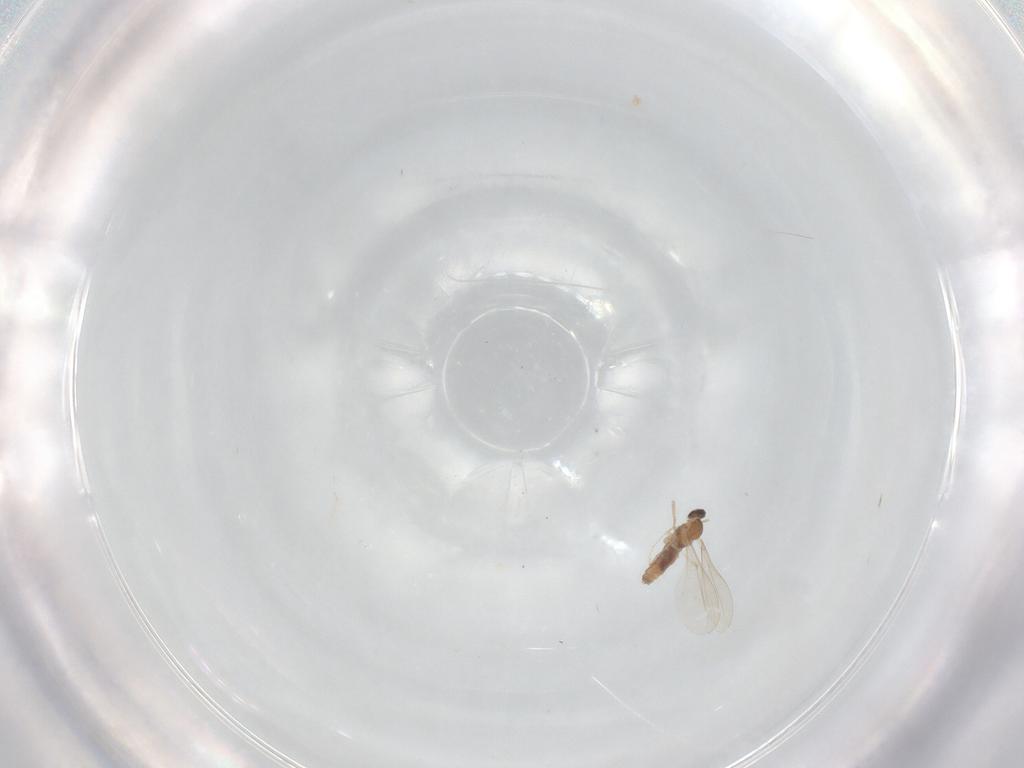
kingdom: Animalia
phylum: Arthropoda
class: Insecta
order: Diptera
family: Cecidomyiidae
